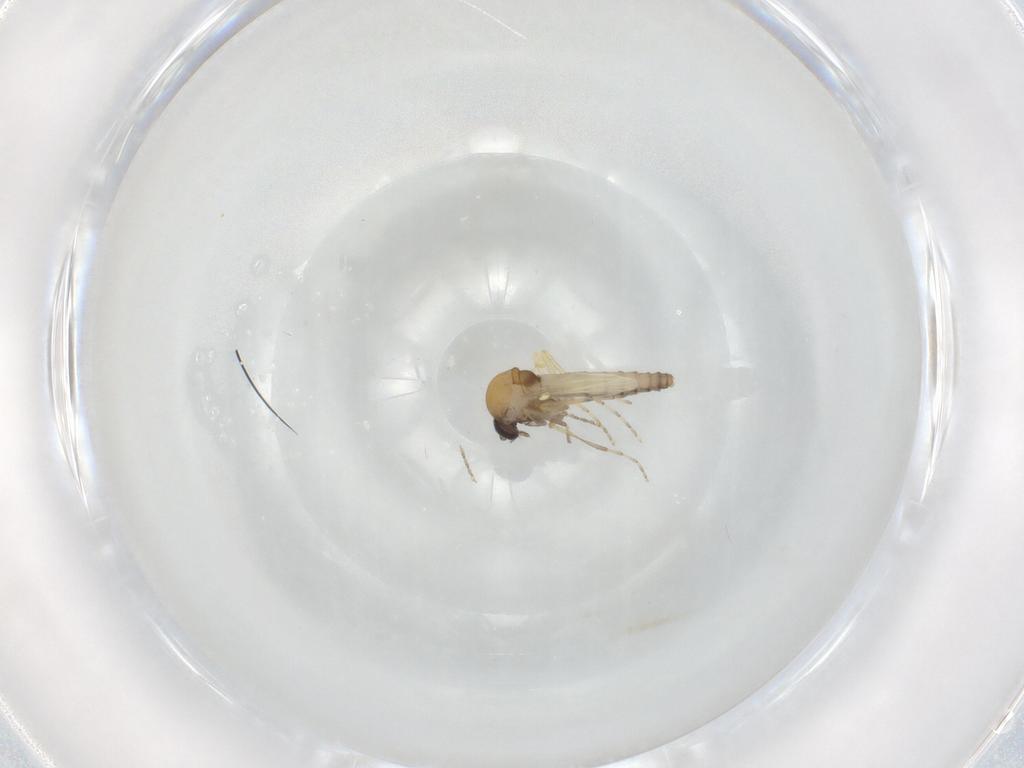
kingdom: Animalia
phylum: Arthropoda
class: Insecta
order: Diptera
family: Ceratopogonidae
